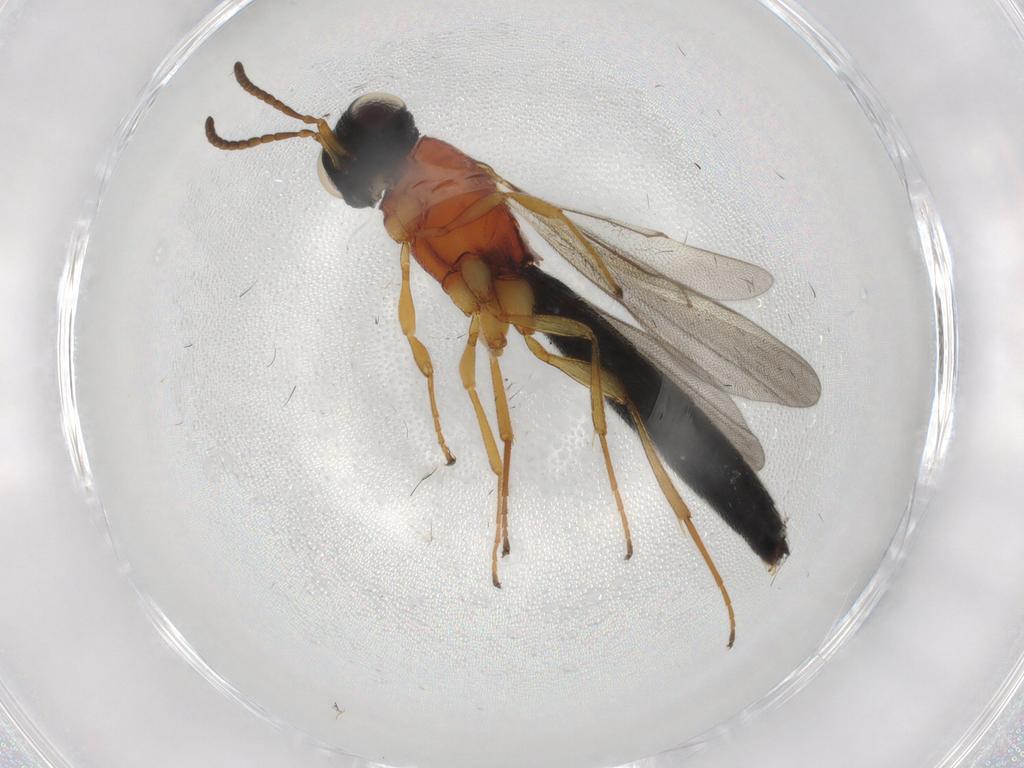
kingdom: Animalia
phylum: Arthropoda
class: Insecta
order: Hymenoptera
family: Scelionidae
